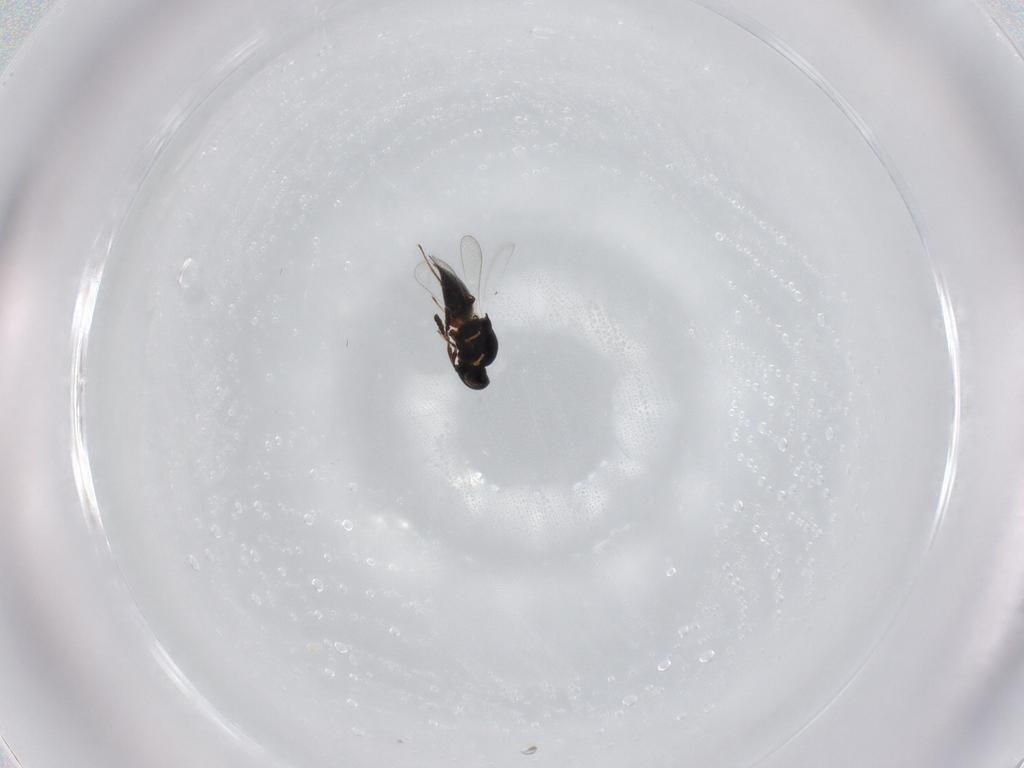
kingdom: Animalia
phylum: Arthropoda
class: Insecta
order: Hymenoptera
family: Platygastridae
